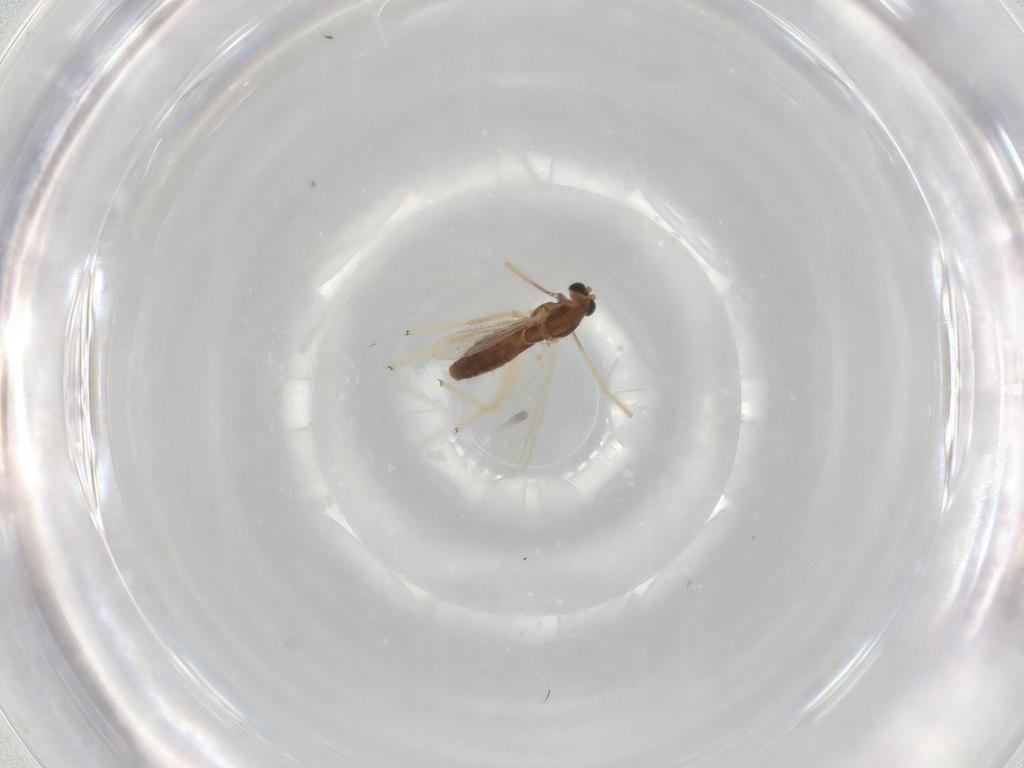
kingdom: Animalia
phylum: Arthropoda
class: Insecta
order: Diptera
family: Chironomidae
